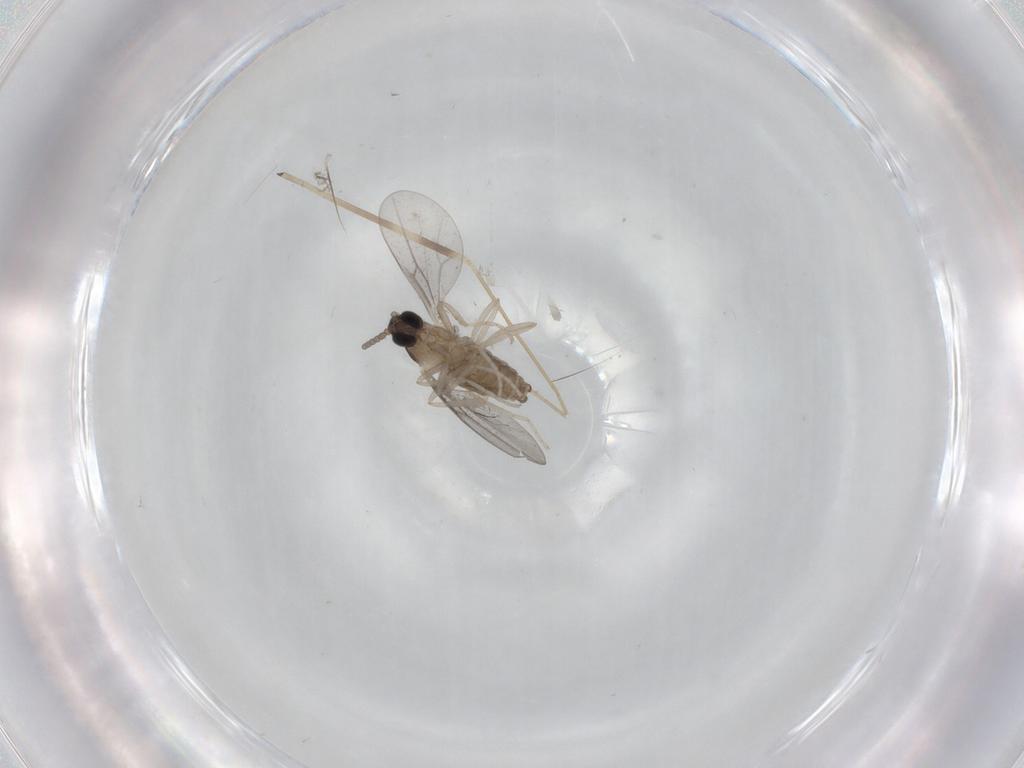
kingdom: Animalia
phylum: Arthropoda
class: Insecta
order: Diptera
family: Cecidomyiidae
